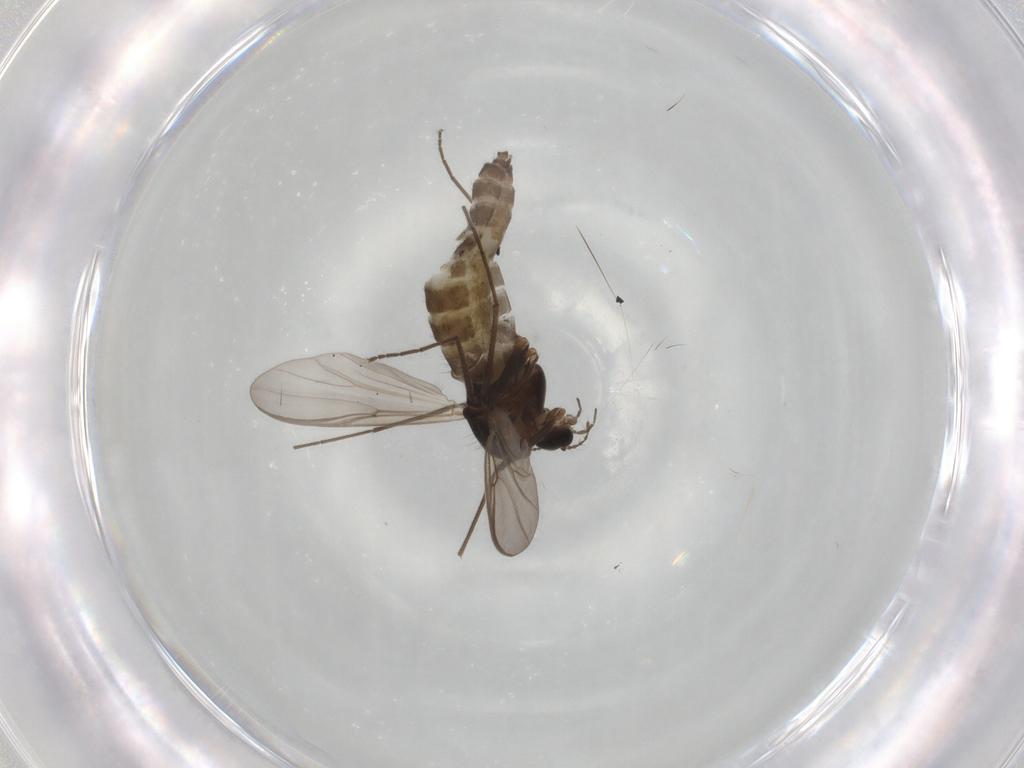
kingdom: Animalia
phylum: Arthropoda
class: Insecta
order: Diptera
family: Chironomidae
